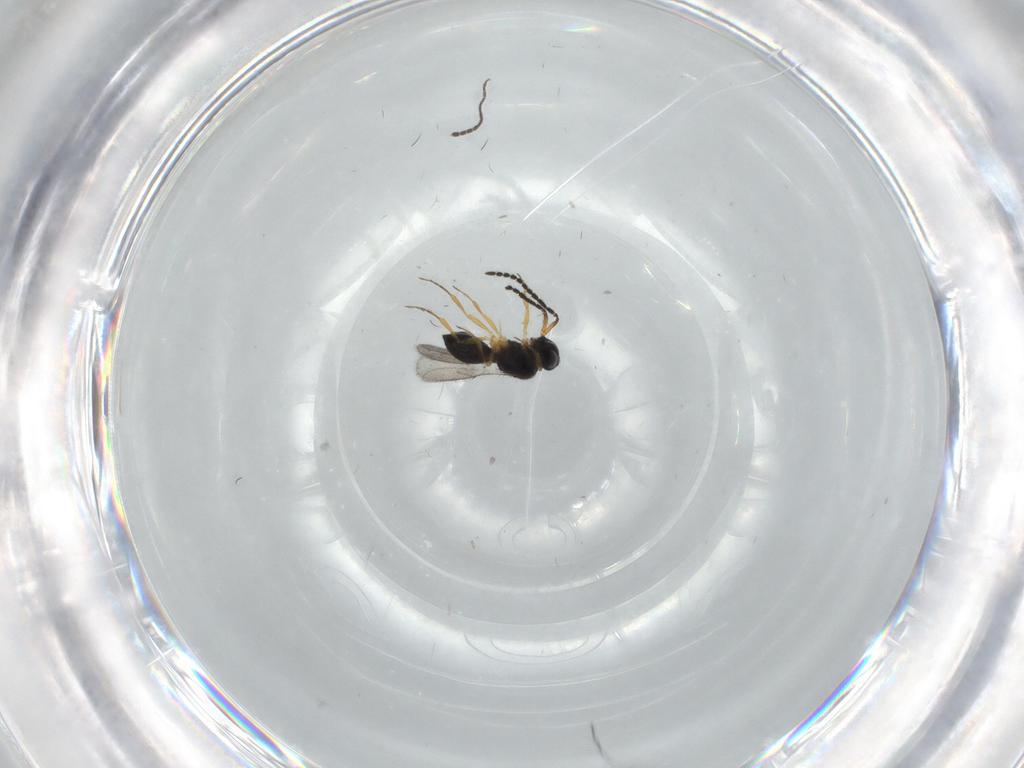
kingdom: Animalia
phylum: Arthropoda
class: Insecta
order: Hymenoptera
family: Scelionidae
